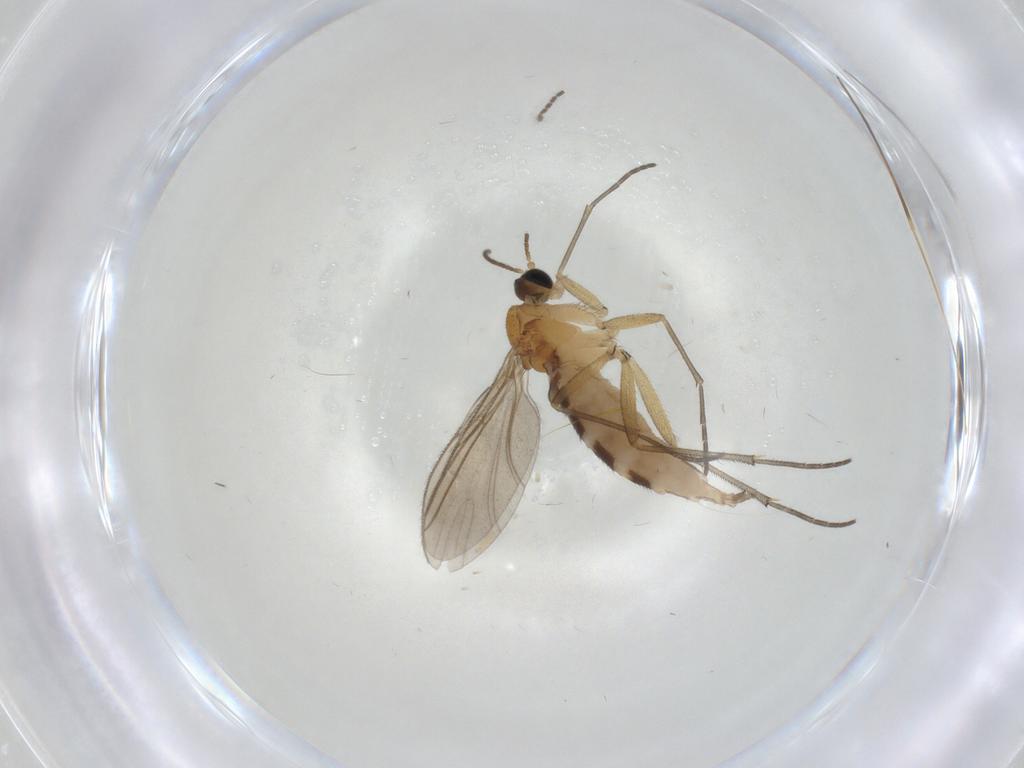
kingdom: Animalia
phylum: Arthropoda
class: Insecta
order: Diptera
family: Limoniidae
